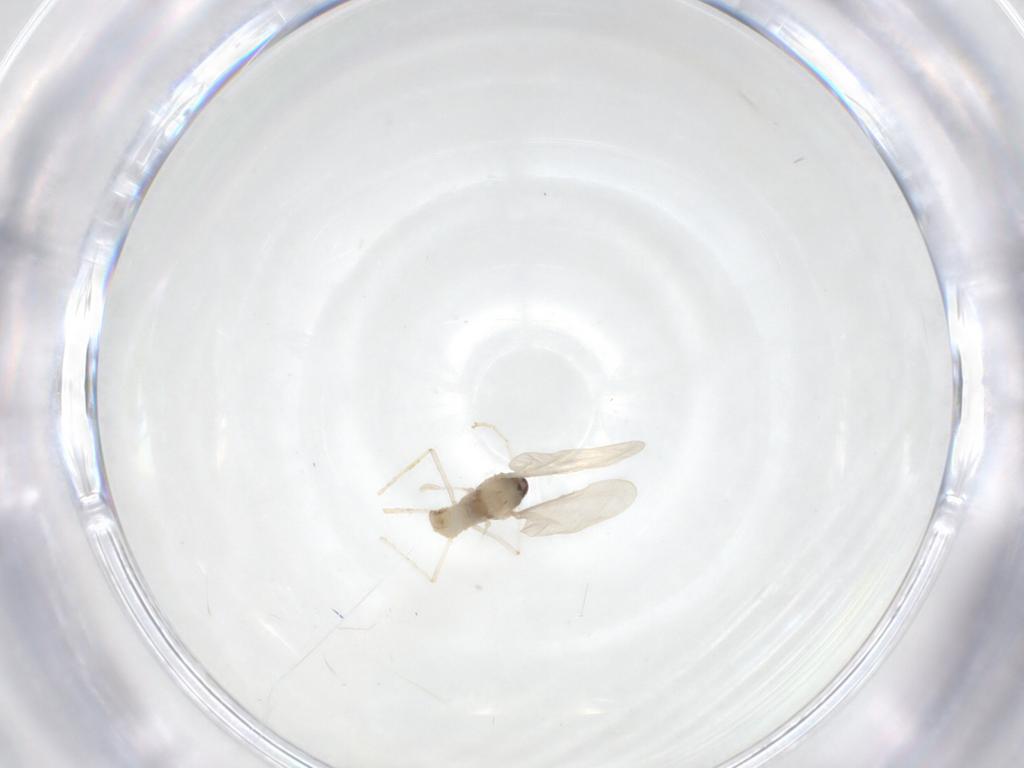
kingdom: Animalia
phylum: Arthropoda
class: Insecta
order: Diptera
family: Cecidomyiidae
